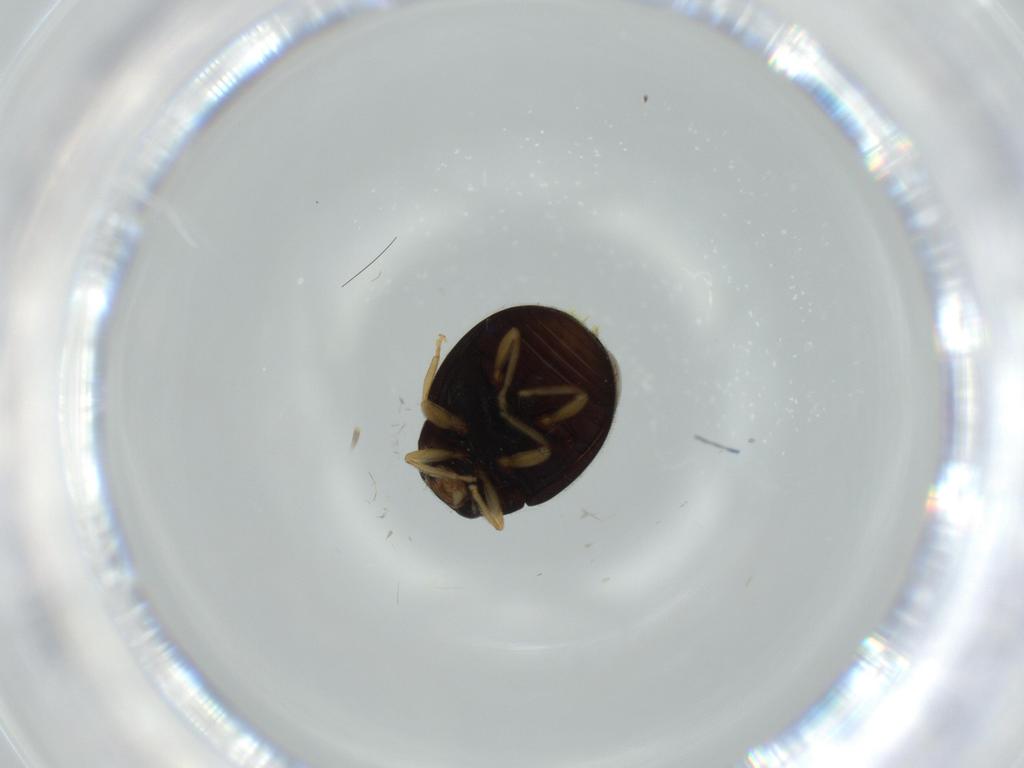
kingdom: Animalia
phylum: Arthropoda
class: Insecta
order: Coleoptera
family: Coccinellidae
